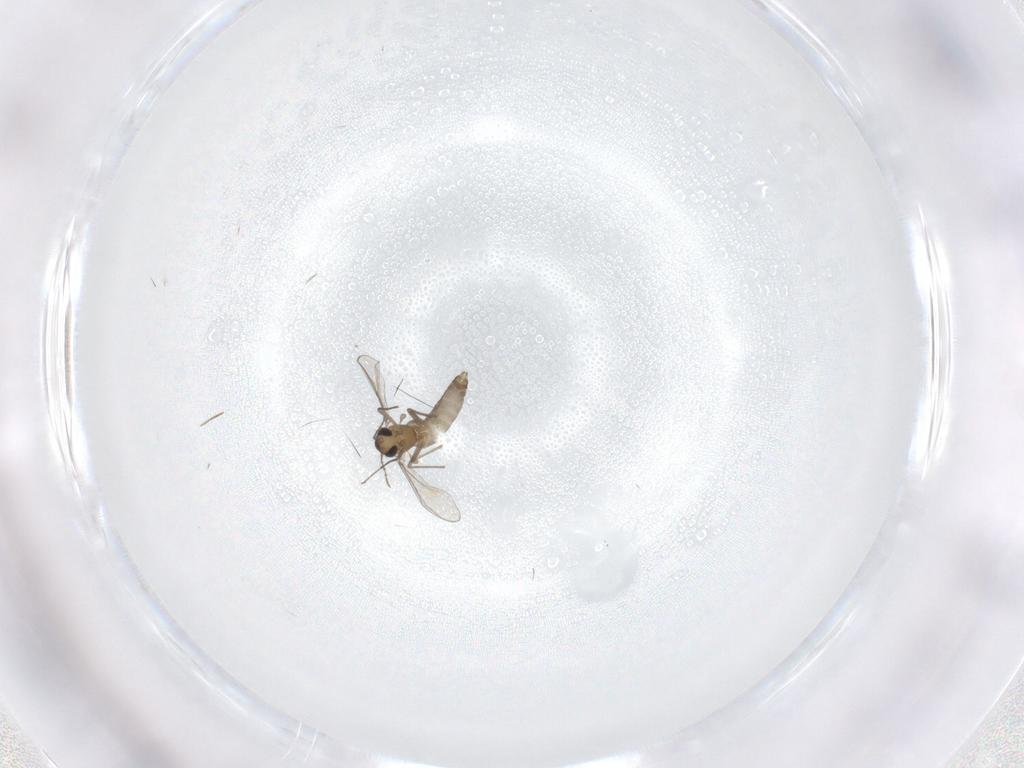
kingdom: Animalia
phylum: Arthropoda
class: Insecta
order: Diptera
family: Chironomidae
